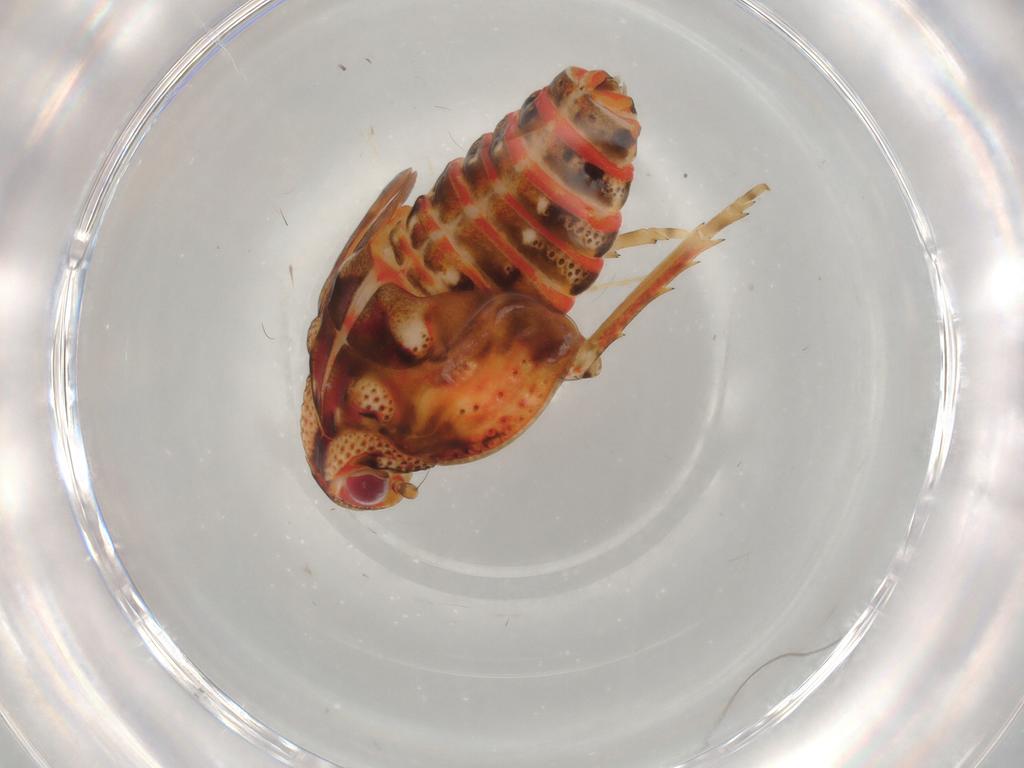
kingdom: Animalia
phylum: Arthropoda
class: Insecta
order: Hemiptera
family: Flatidae
